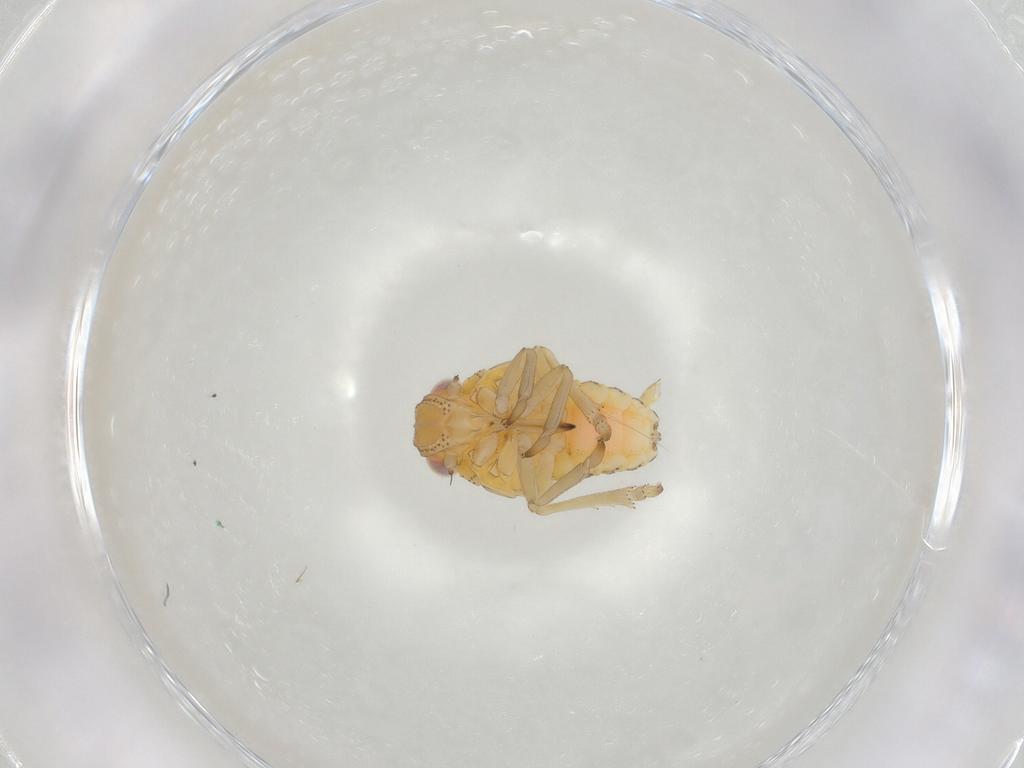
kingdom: Animalia
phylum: Arthropoda
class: Insecta
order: Hemiptera
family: Tropiduchidae
